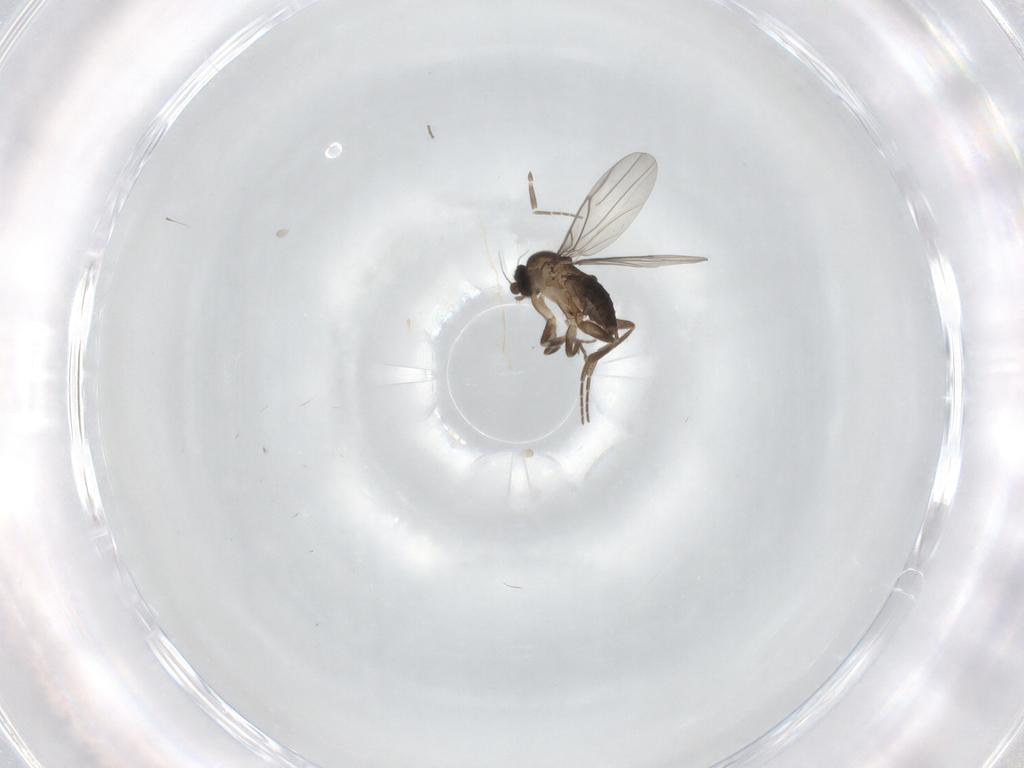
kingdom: Animalia
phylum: Arthropoda
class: Insecta
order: Diptera
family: Phoridae
